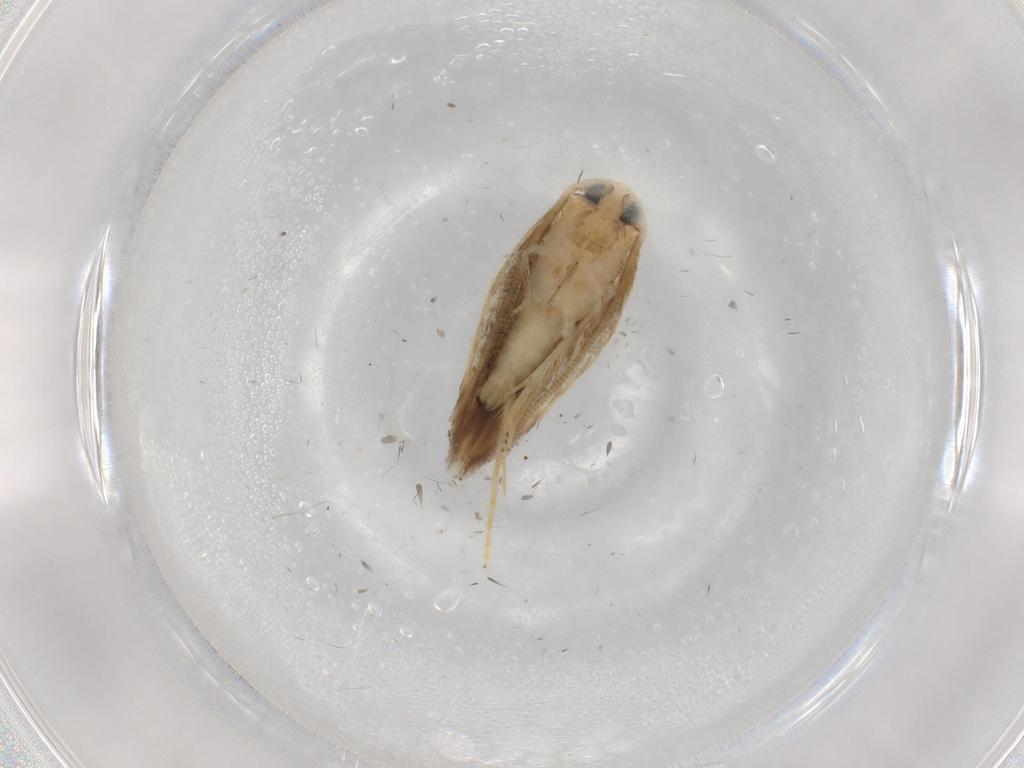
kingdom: Animalia
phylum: Arthropoda
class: Insecta
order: Lepidoptera
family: Opostegidae
